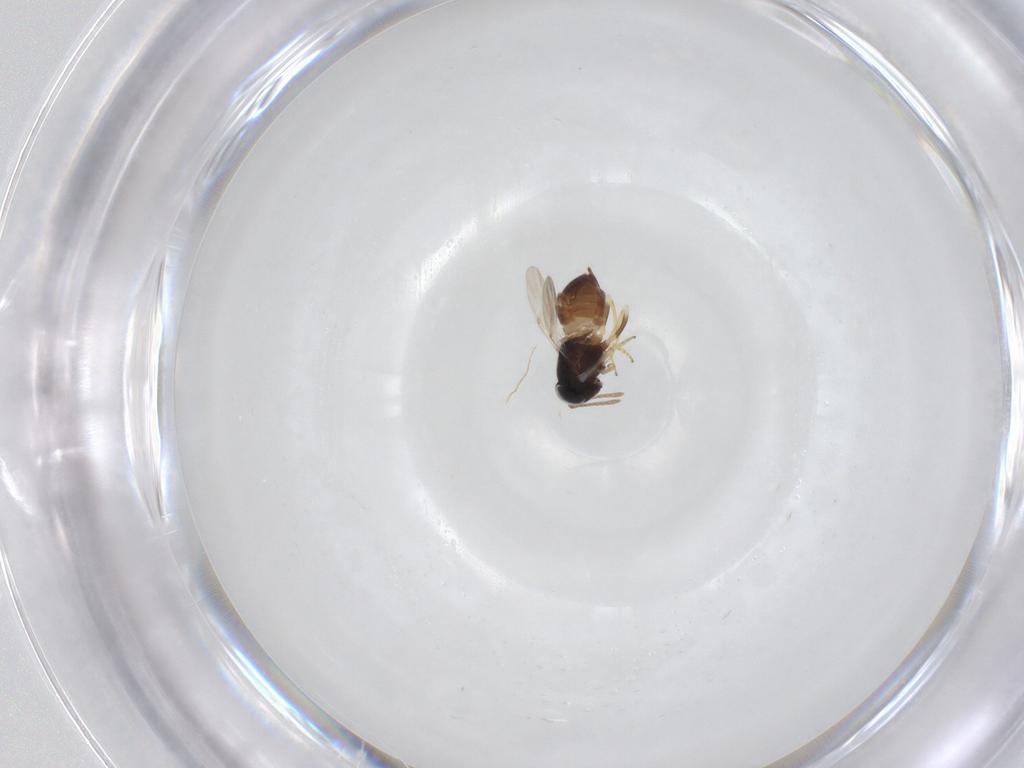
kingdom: Animalia
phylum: Arthropoda
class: Insecta
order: Hymenoptera
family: Encyrtidae
